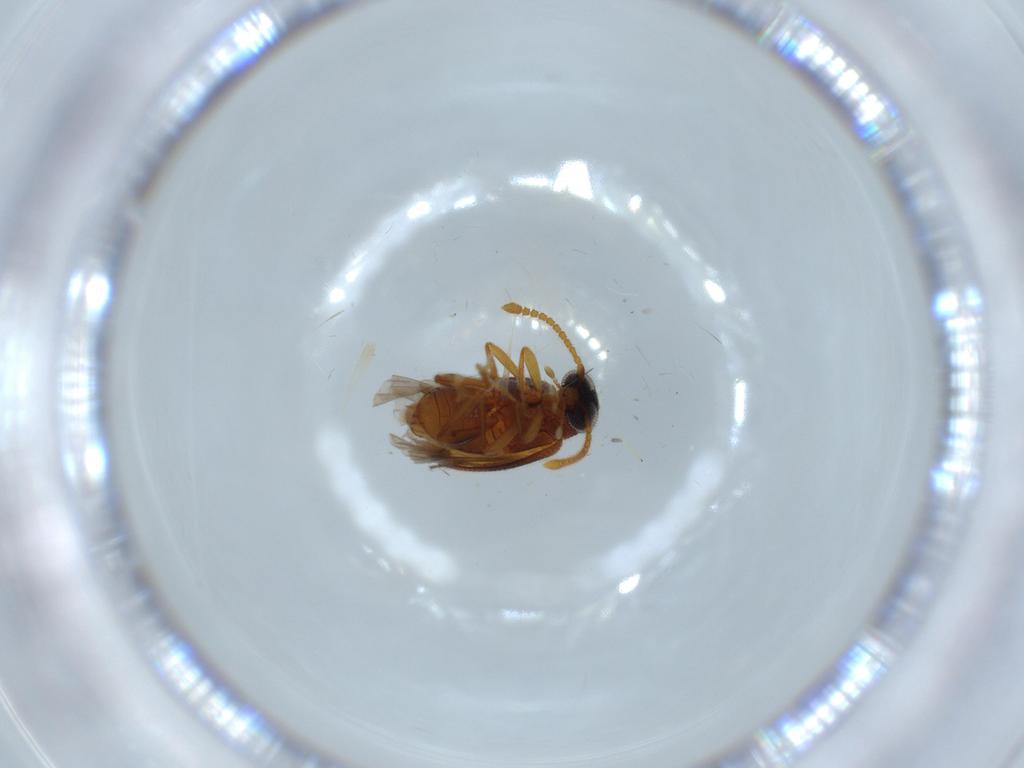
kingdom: Animalia
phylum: Arthropoda
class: Insecta
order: Coleoptera
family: Aderidae
